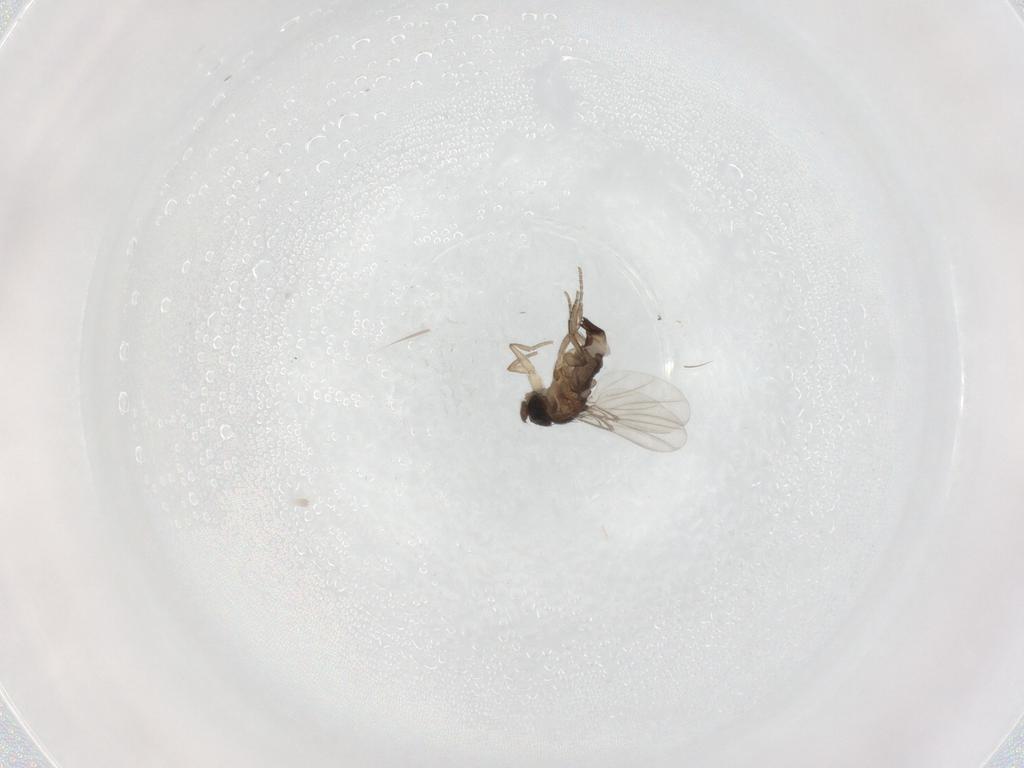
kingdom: Animalia
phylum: Arthropoda
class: Insecta
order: Diptera
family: Phoridae
